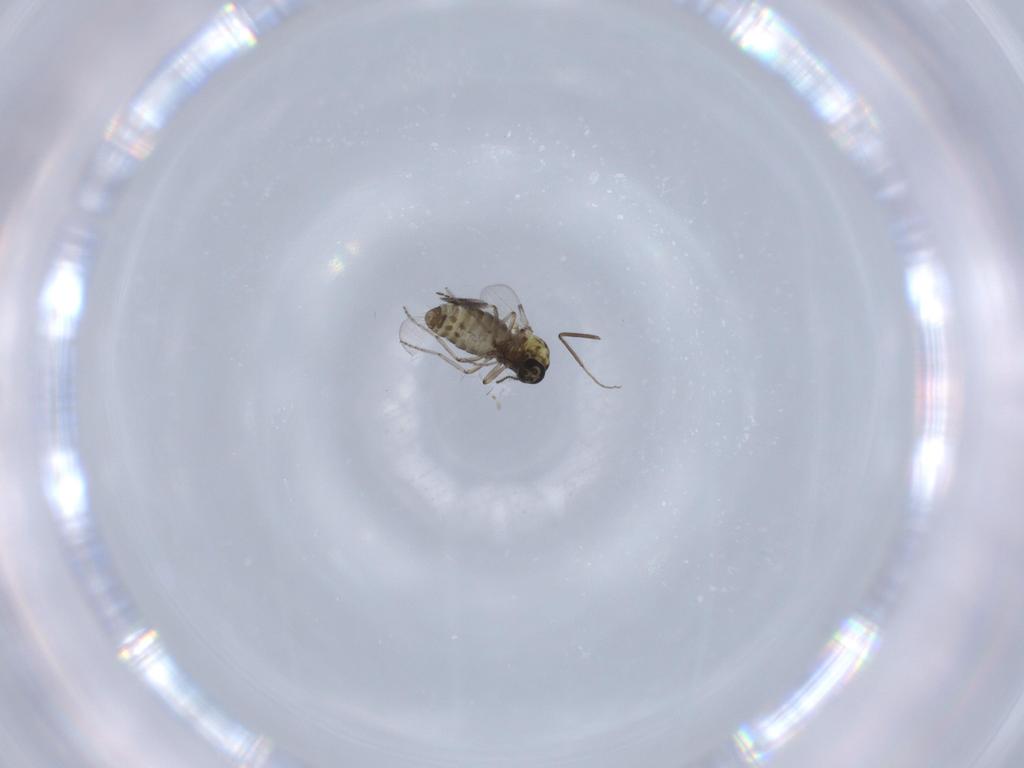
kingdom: Animalia
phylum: Arthropoda
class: Insecta
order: Diptera
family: Ceratopogonidae
